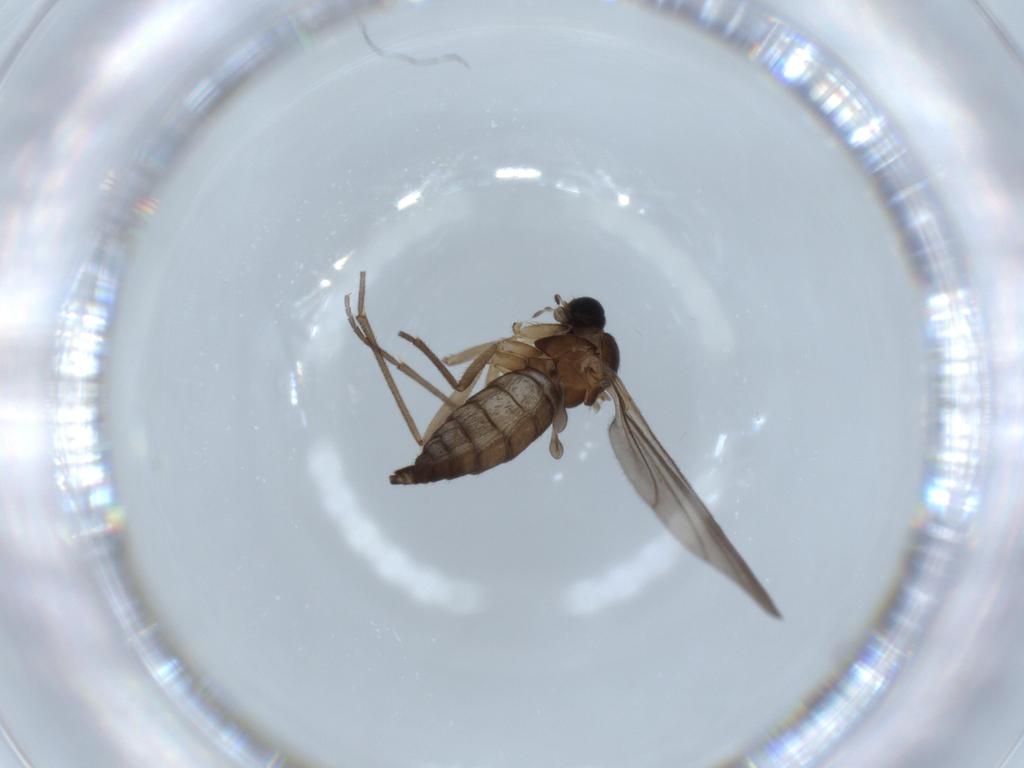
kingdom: Animalia
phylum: Arthropoda
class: Insecta
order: Diptera
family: Sciaridae
